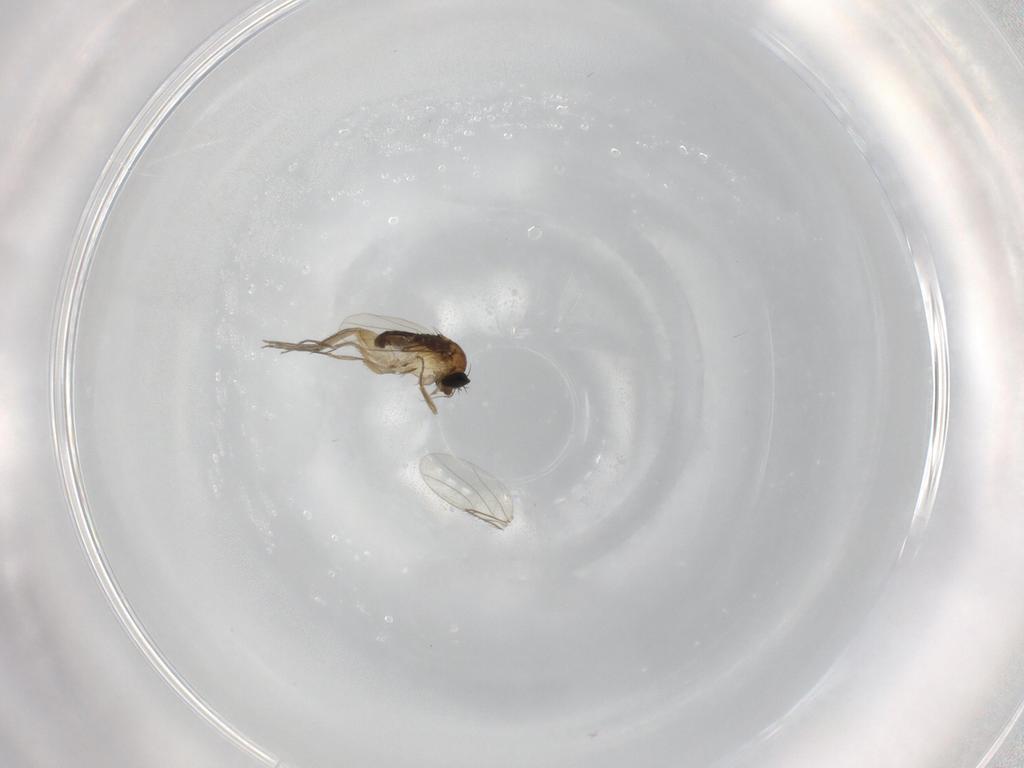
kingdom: Animalia
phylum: Arthropoda
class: Insecta
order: Diptera
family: Phoridae
